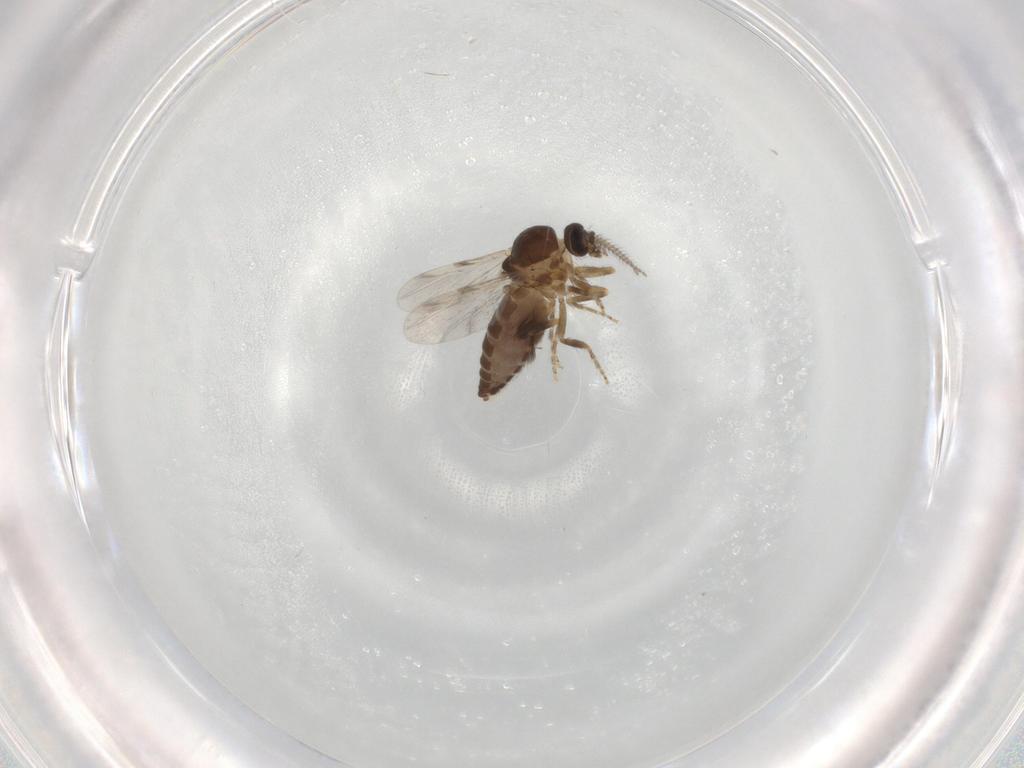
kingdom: Animalia
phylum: Arthropoda
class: Insecta
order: Diptera
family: Ceratopogonidae
